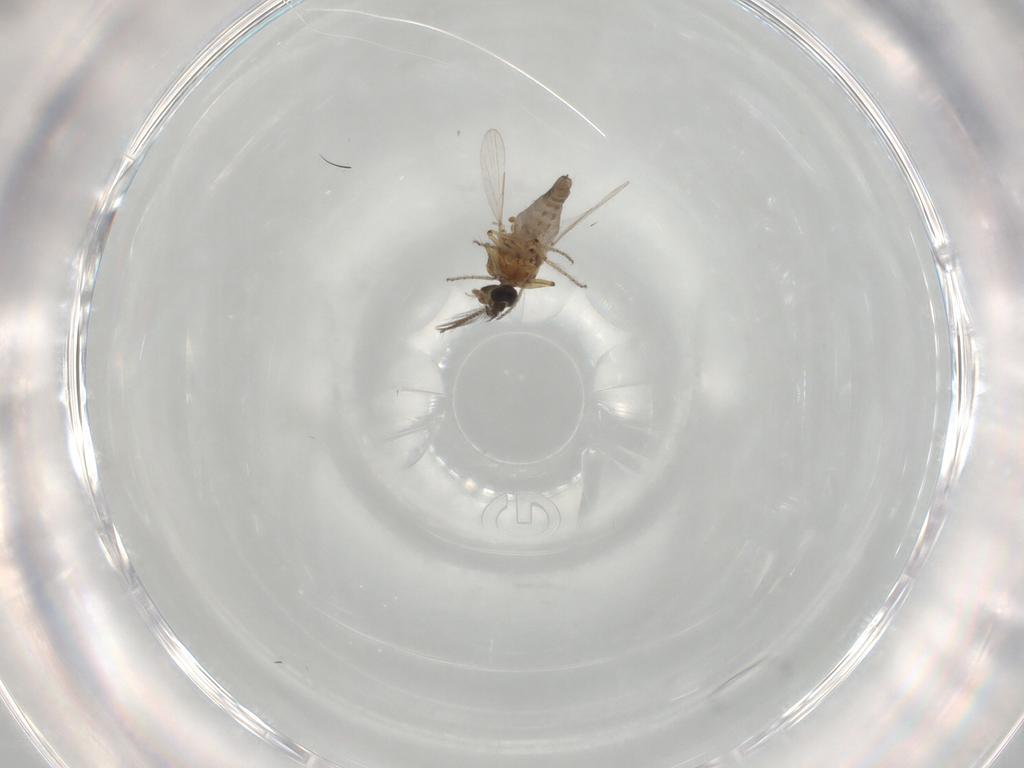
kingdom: Animalia
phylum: Arthropoda
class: Insecta
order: Diptera
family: Ceratopogonidae
